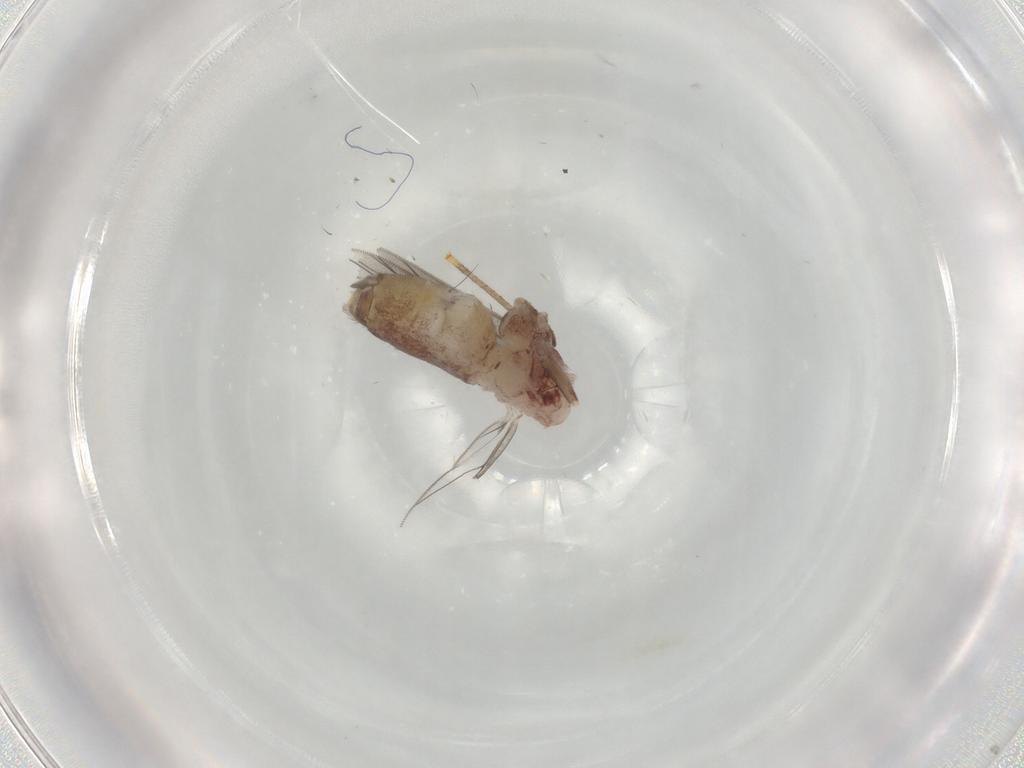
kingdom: Animalia
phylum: Arthropoda
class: Insecta
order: Psocodea
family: Lepidopsocidae
